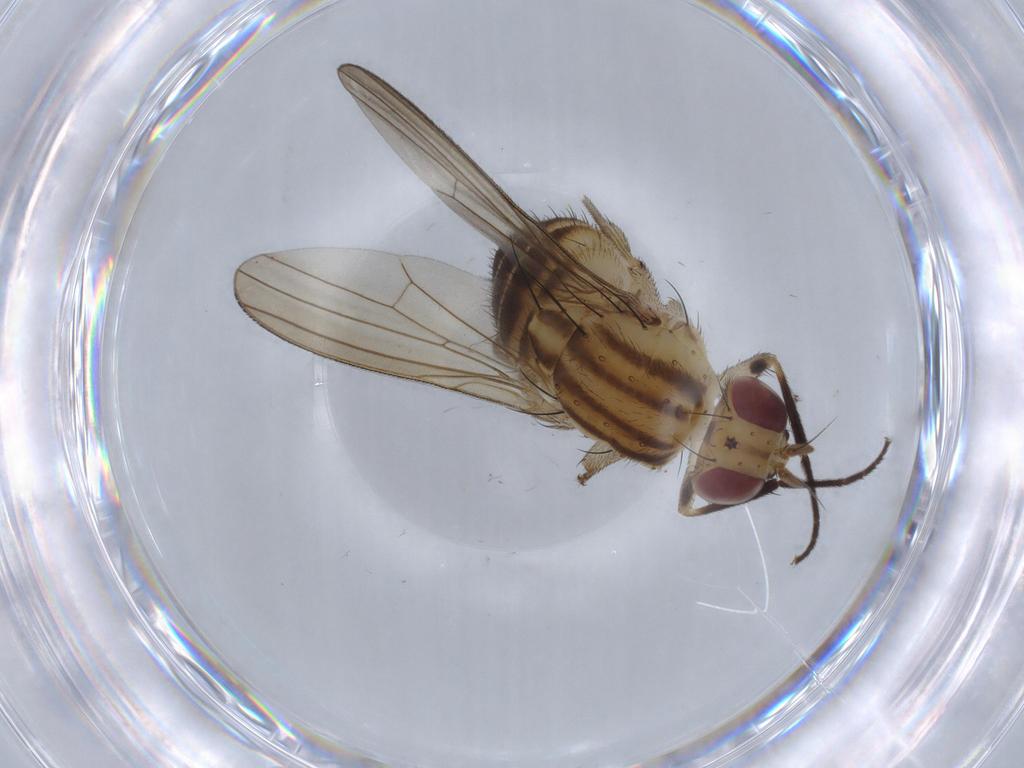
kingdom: Animalia
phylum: Arthropoda
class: Insecta
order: Diptera
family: Lauxaniidae
